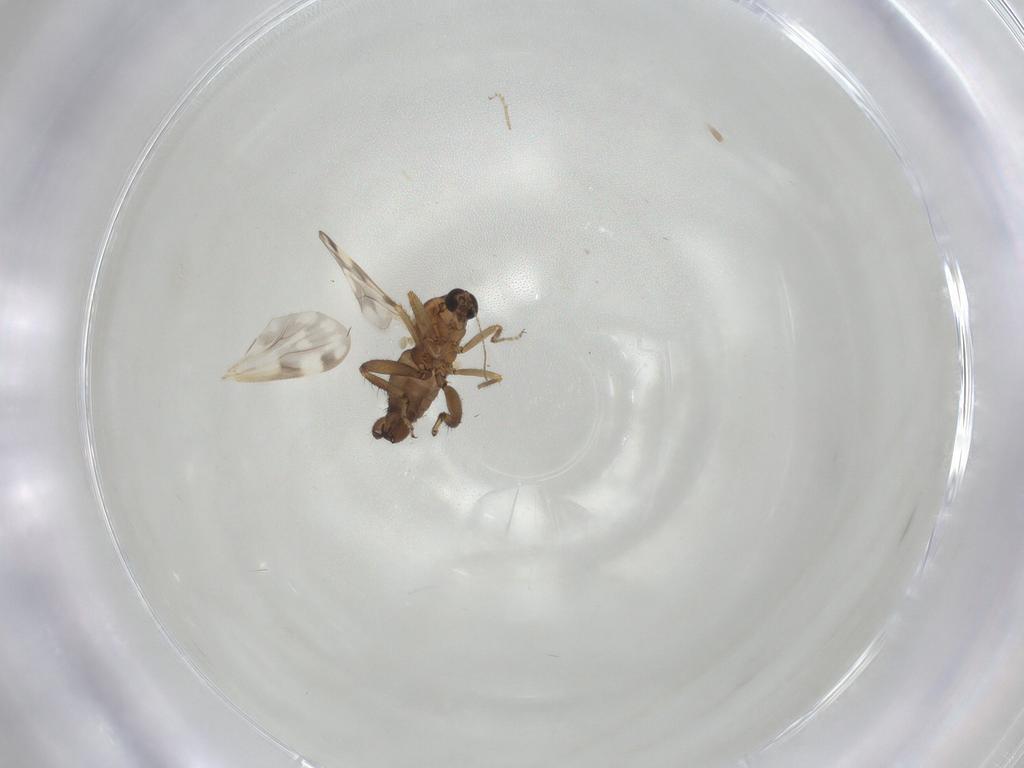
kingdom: Animalia
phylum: Arthropoda
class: Insecta
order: Diptera
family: Ceratopogonidae
